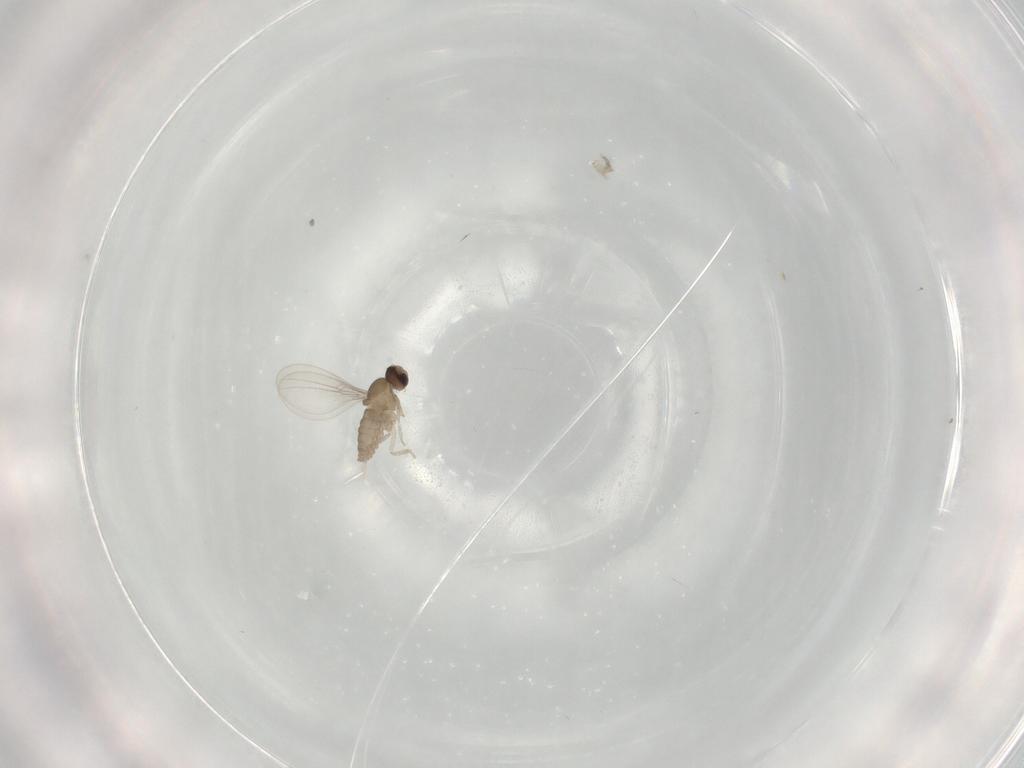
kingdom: Animalia
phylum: Arthropoda
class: Insecta
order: Diptera
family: Cecidomyiidae
